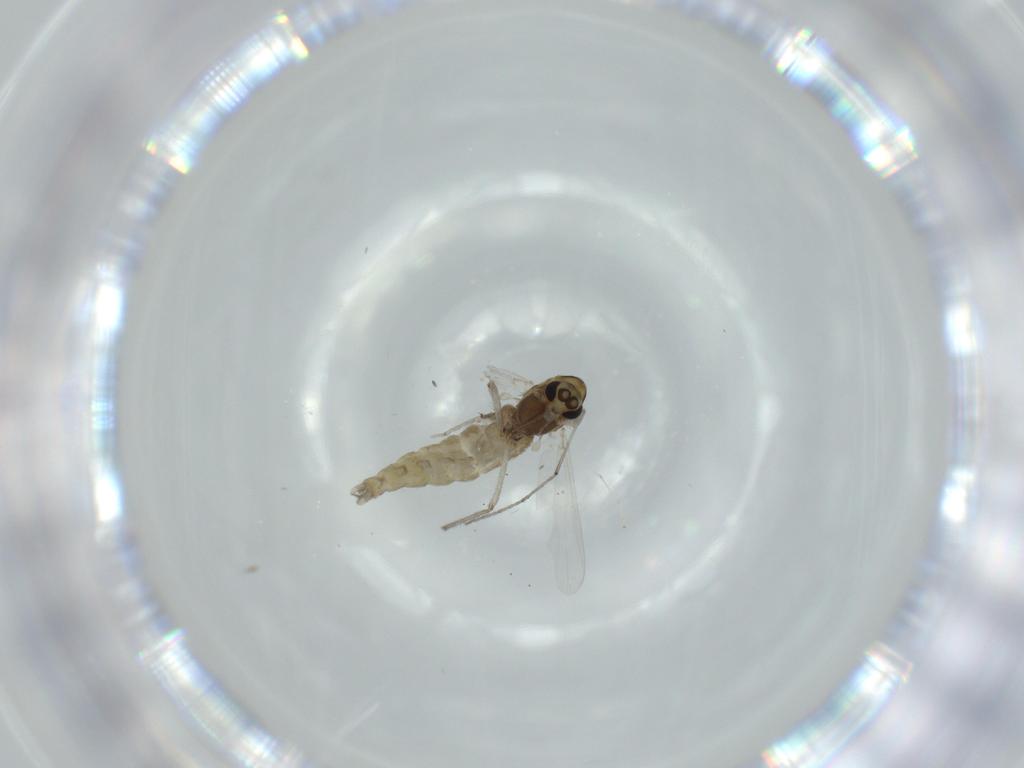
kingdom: Animalia
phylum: Arthropoda
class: Insecta
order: Diptera
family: Chironomidae
